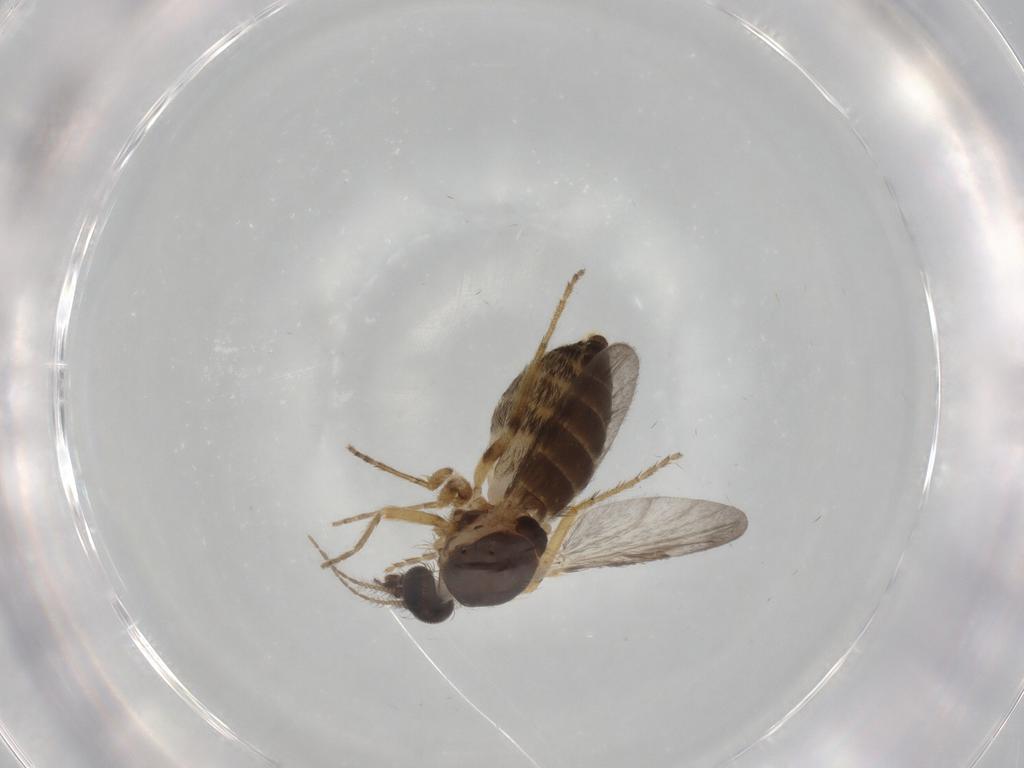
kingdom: Animalia
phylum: Arthropoda
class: Insecta
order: Diptera
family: Ceratopogonidae
